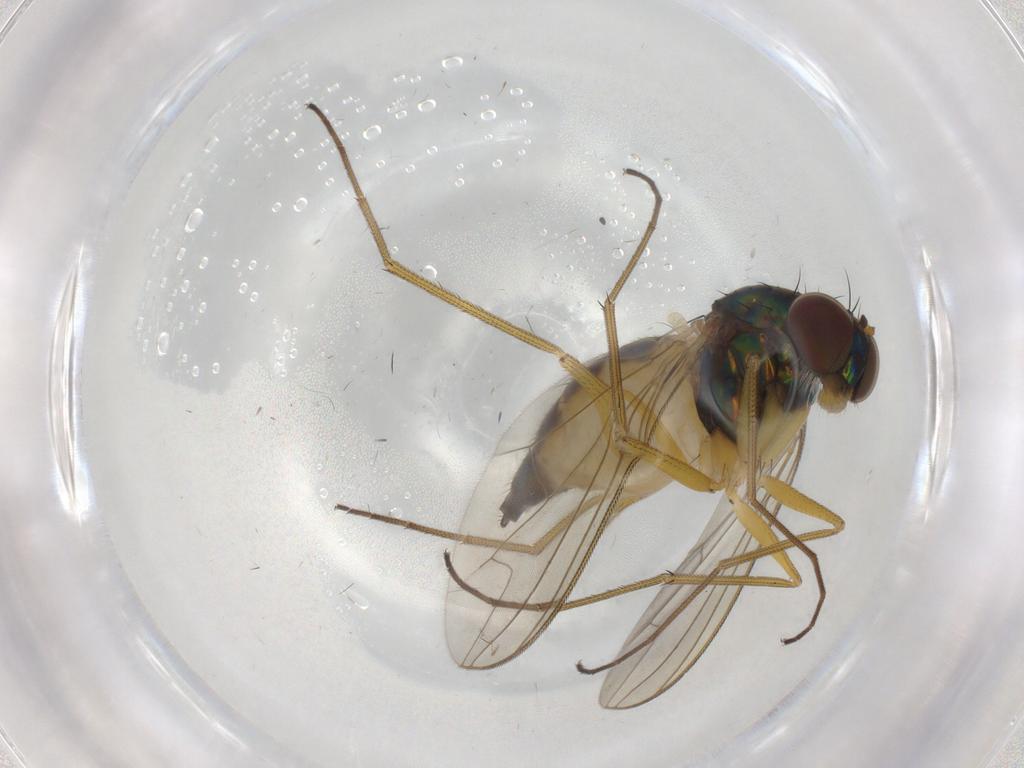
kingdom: Animalia
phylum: Arthropoda
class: Insecta
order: Diptera
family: Dolichopodidae
